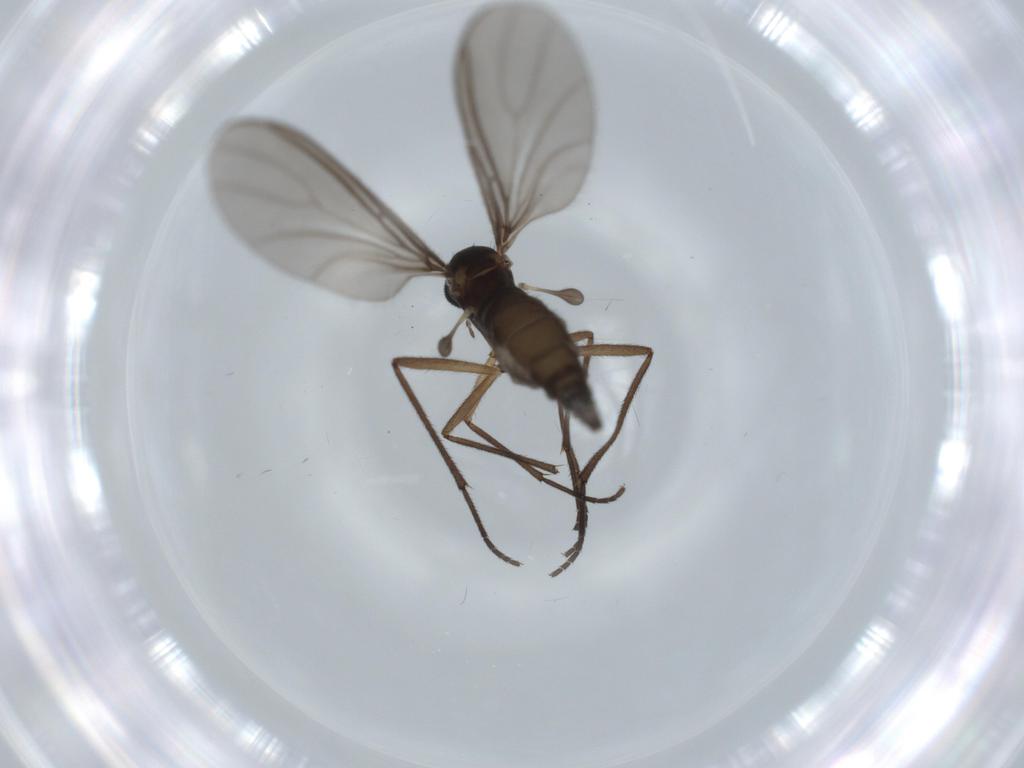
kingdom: Animalia
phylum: Arthropoda
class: Insecta
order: Diptera
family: Sciaridae
